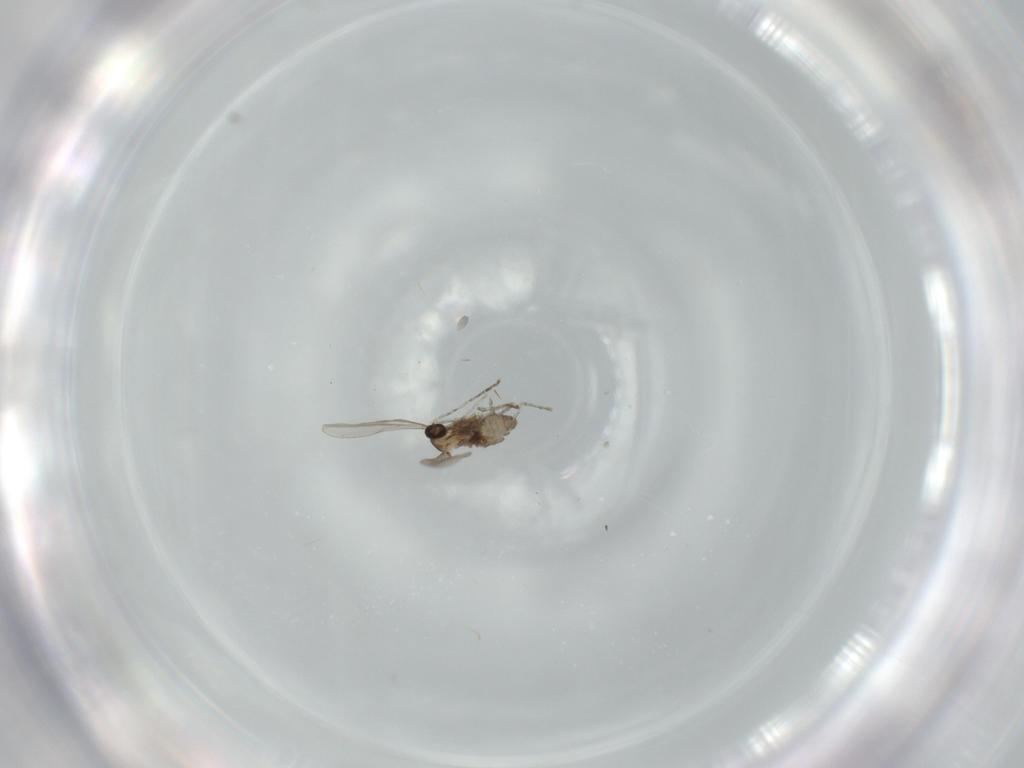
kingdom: Animalia
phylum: Arthropoda
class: Insecta
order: Diptera
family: Cecidomyiidae
